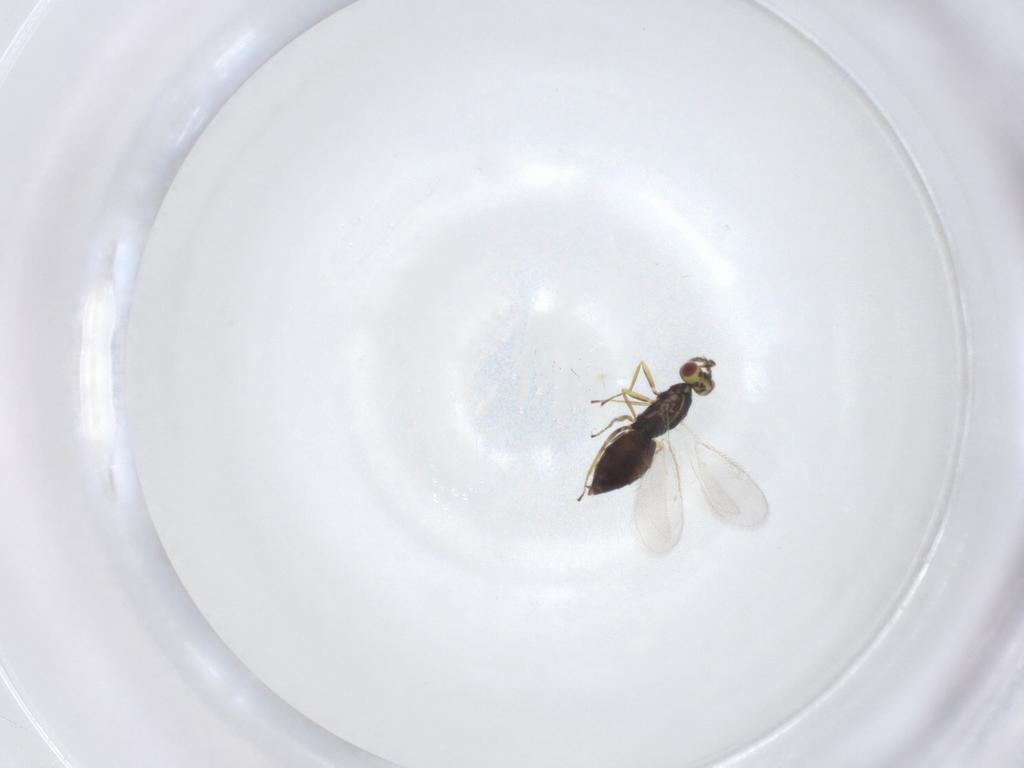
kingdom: Animalia
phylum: Arthropoda
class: Insecta
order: Hymenoptera
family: Eulophidae
